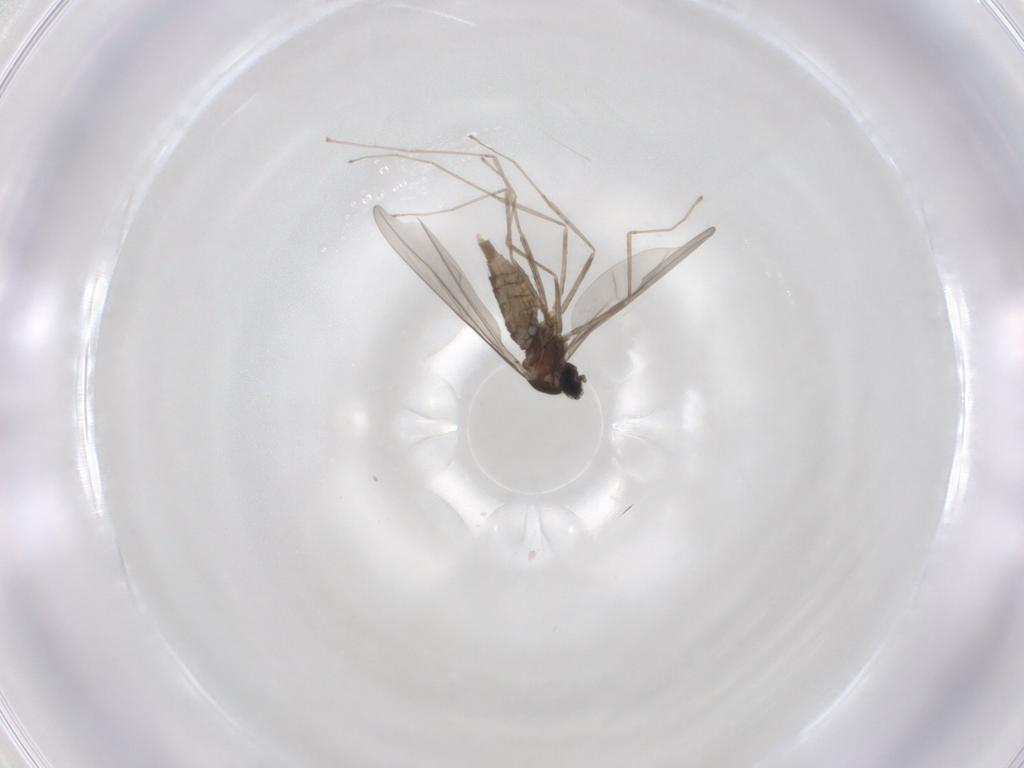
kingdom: Animalia
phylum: Arthropoda
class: Insecta
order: Diptera
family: Cecidomyiidae
